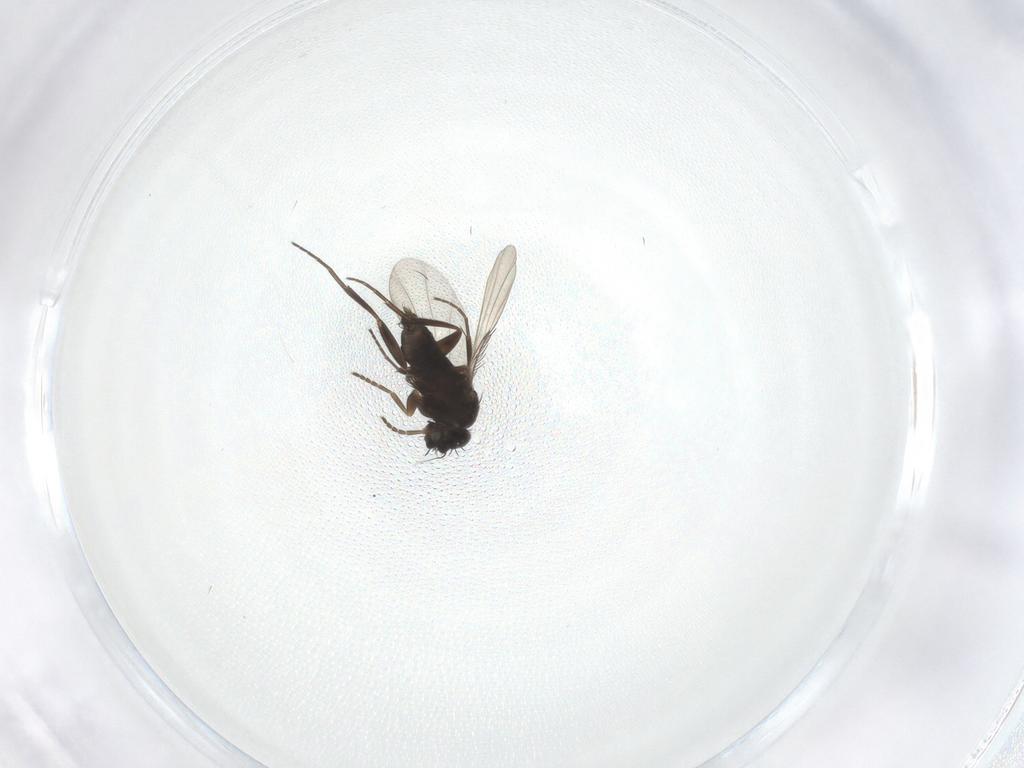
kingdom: Animalia
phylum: Arthropoda
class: Insecta
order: Diptera
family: Phoridae
